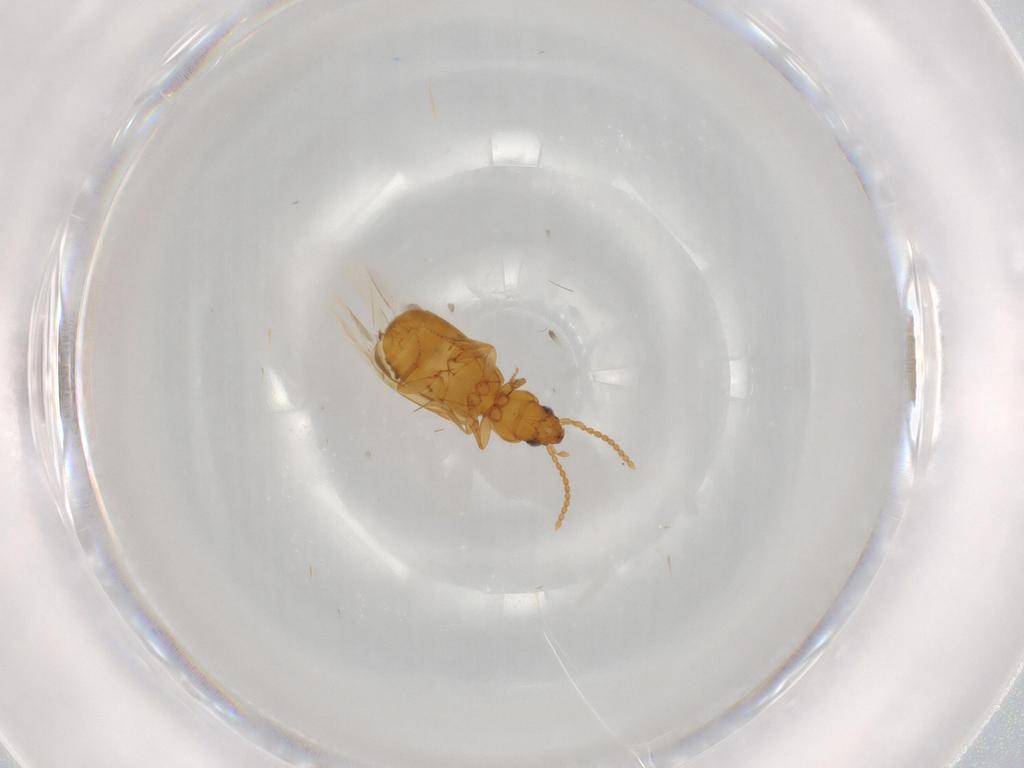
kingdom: Animalia
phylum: Arthropoda
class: Insecta
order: Coleoptera
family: Carabidae
